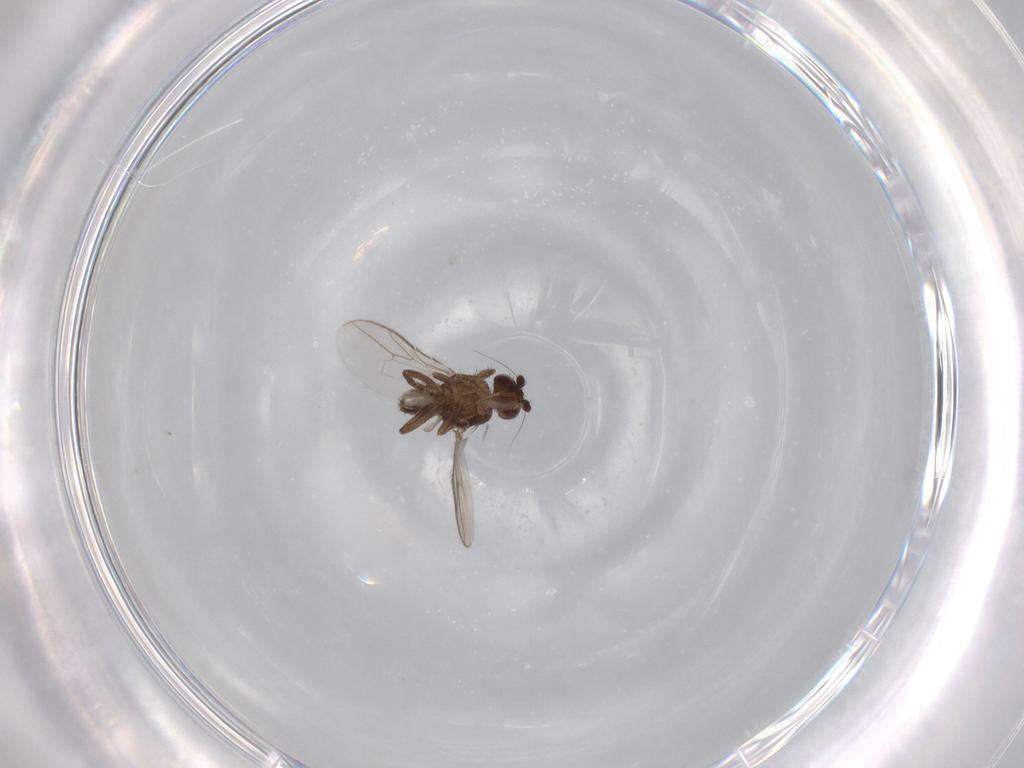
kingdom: Animalia
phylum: Arthropoda
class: Insecta
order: Diptera
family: Sphaeroceridae
